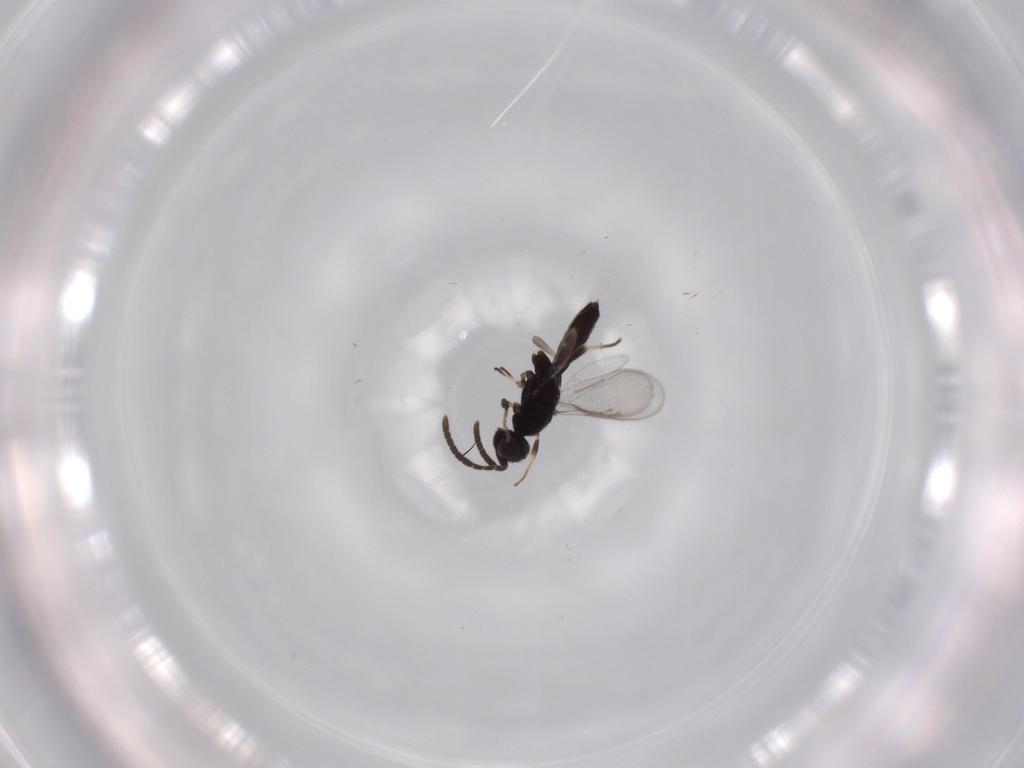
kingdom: Animalia
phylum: Arthropoda
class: Insecta
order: Hymenoptera
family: Eupelmidae
